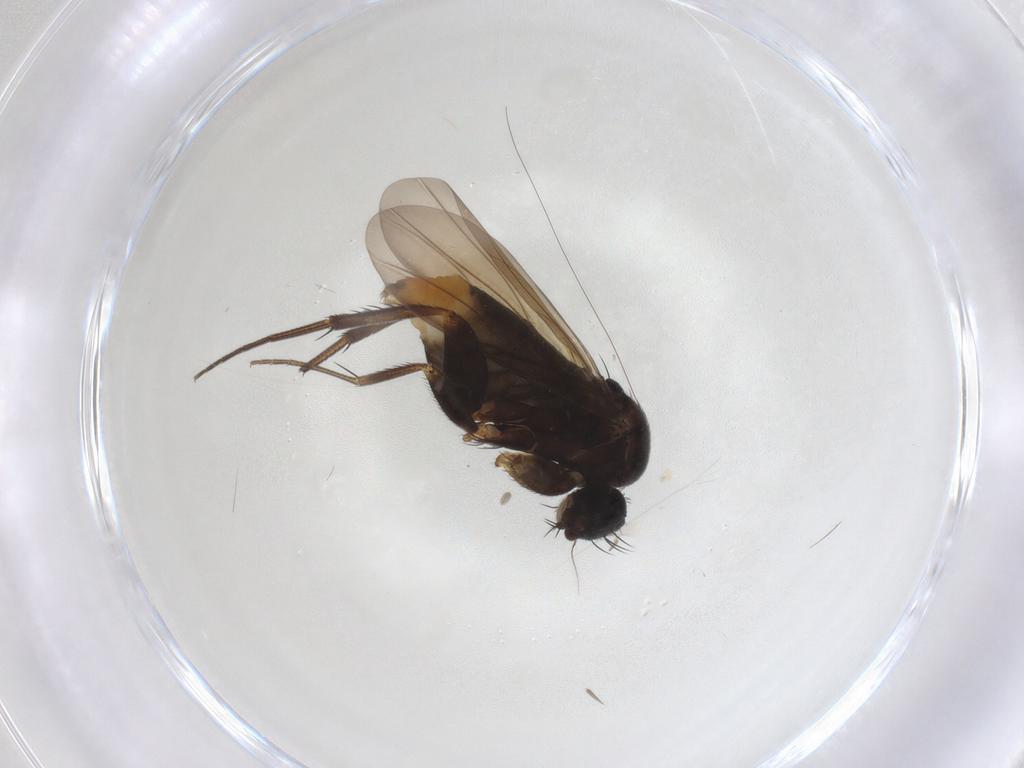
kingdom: Animalia
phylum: Arthropoda
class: Insecta
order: Diptera
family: Phoridae
